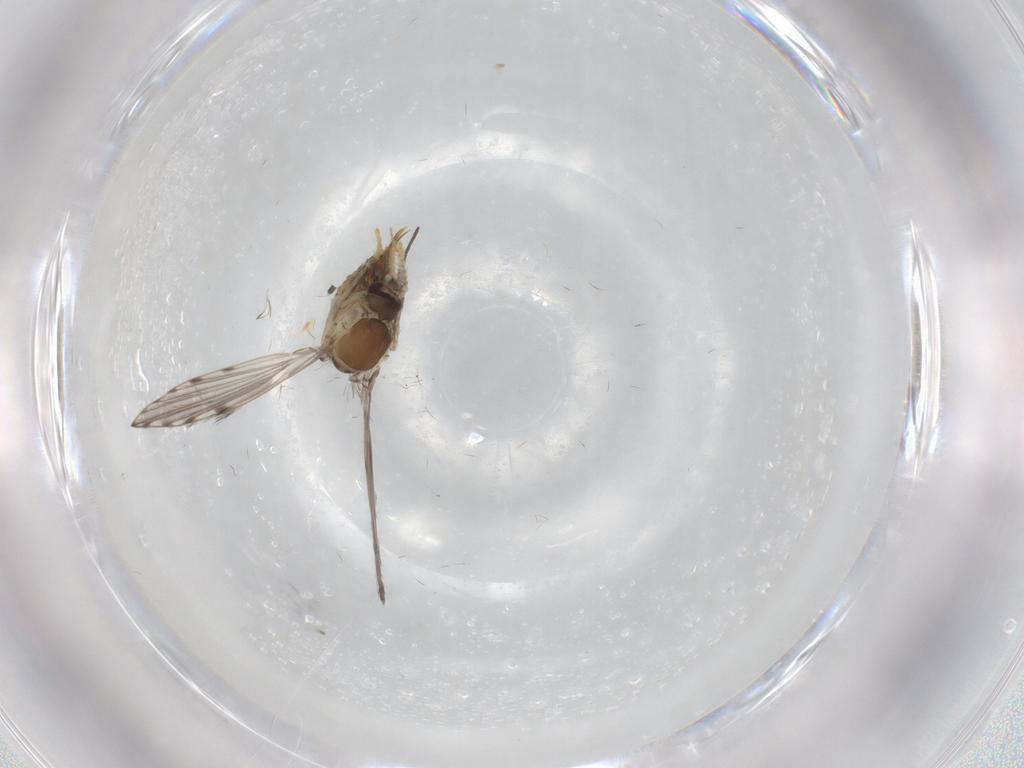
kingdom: Animalia
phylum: Arthropoda
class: Insecta
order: Diptera
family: Psychodidae
